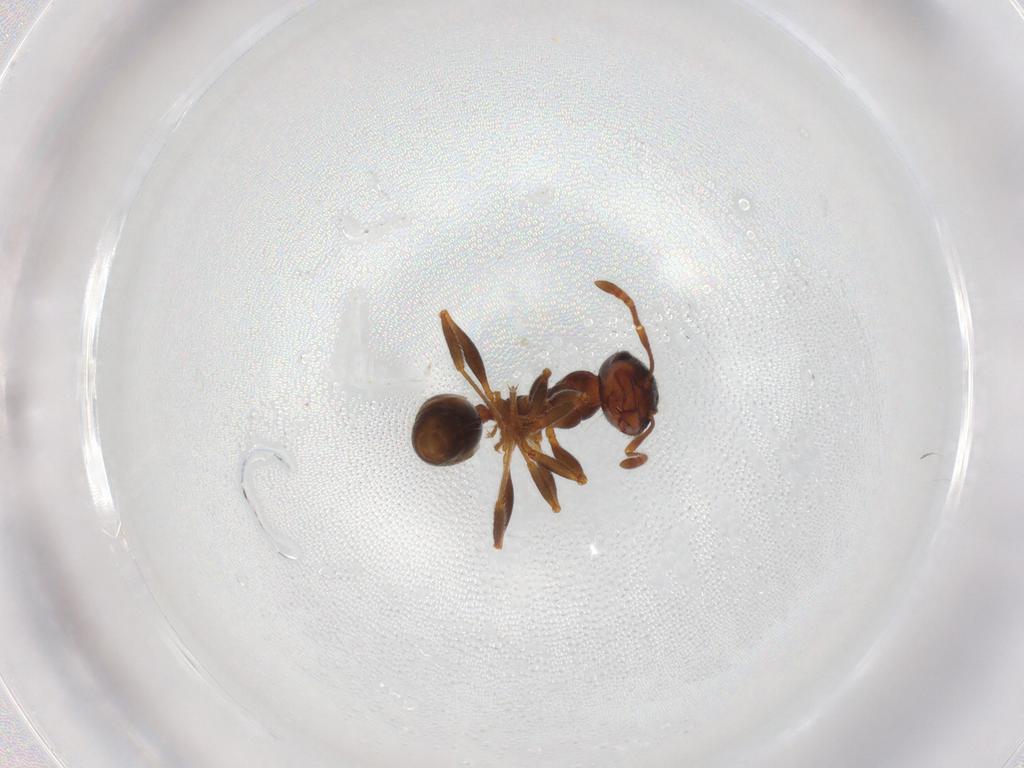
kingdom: Animalia
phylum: Arthropoda
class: Insecta
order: Hymenoptera
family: Formicidae
